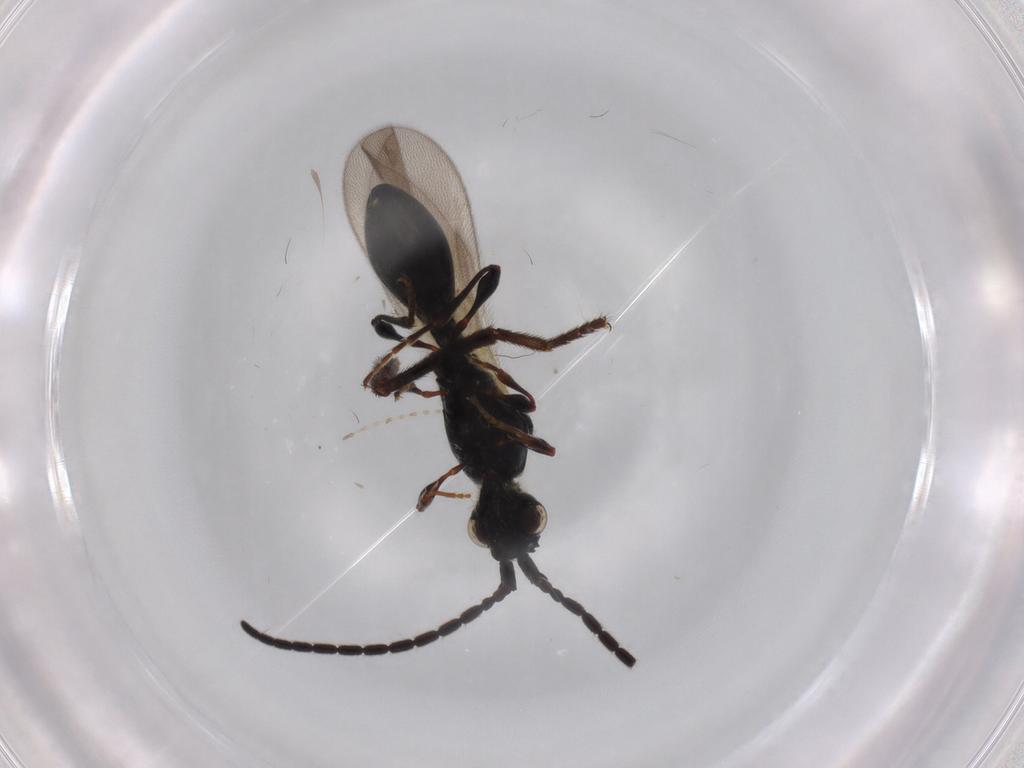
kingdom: Animalia
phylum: Arthropoda
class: Insecta
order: Hymenoptera
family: Diapriidae
